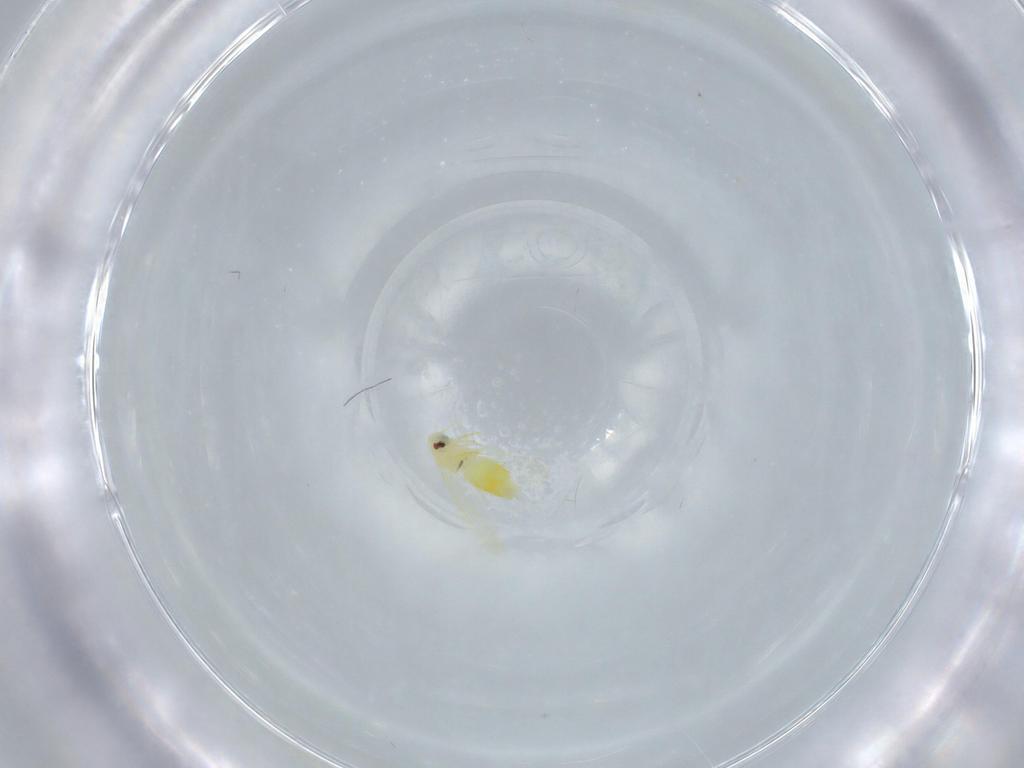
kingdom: Animalia
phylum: Arthropoda
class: Insecta
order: Hemiptera
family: Aleyrodidae
